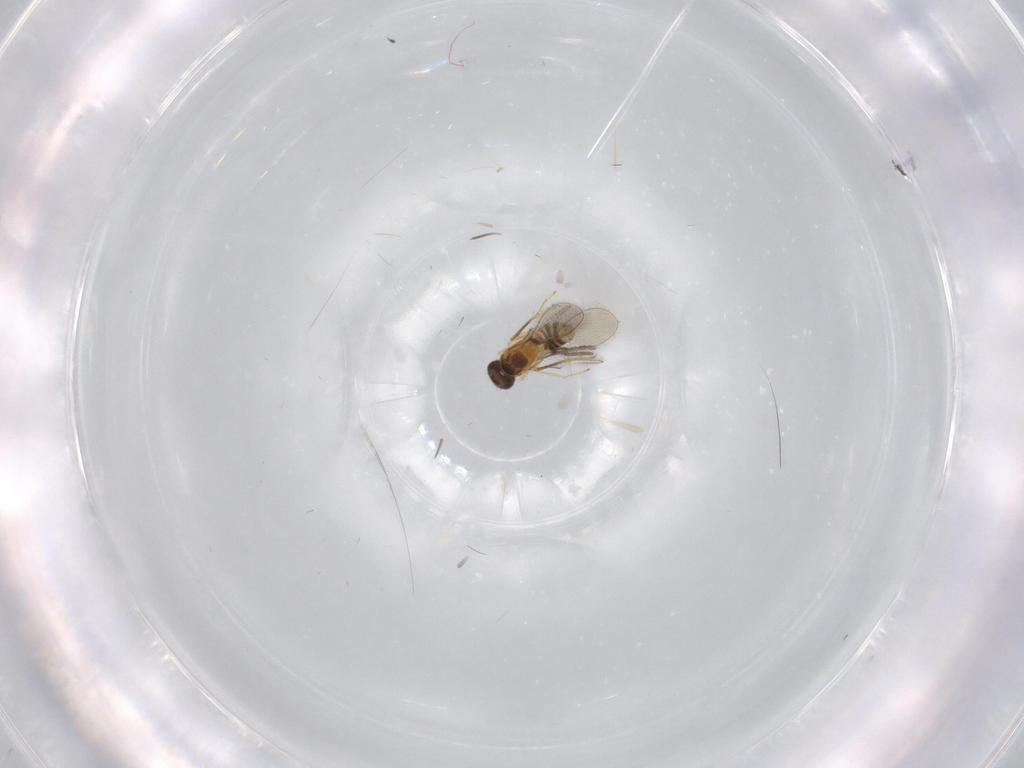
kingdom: Animalia
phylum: Arthropoda
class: Insecta
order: Hymenoptera
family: Mymaridae
